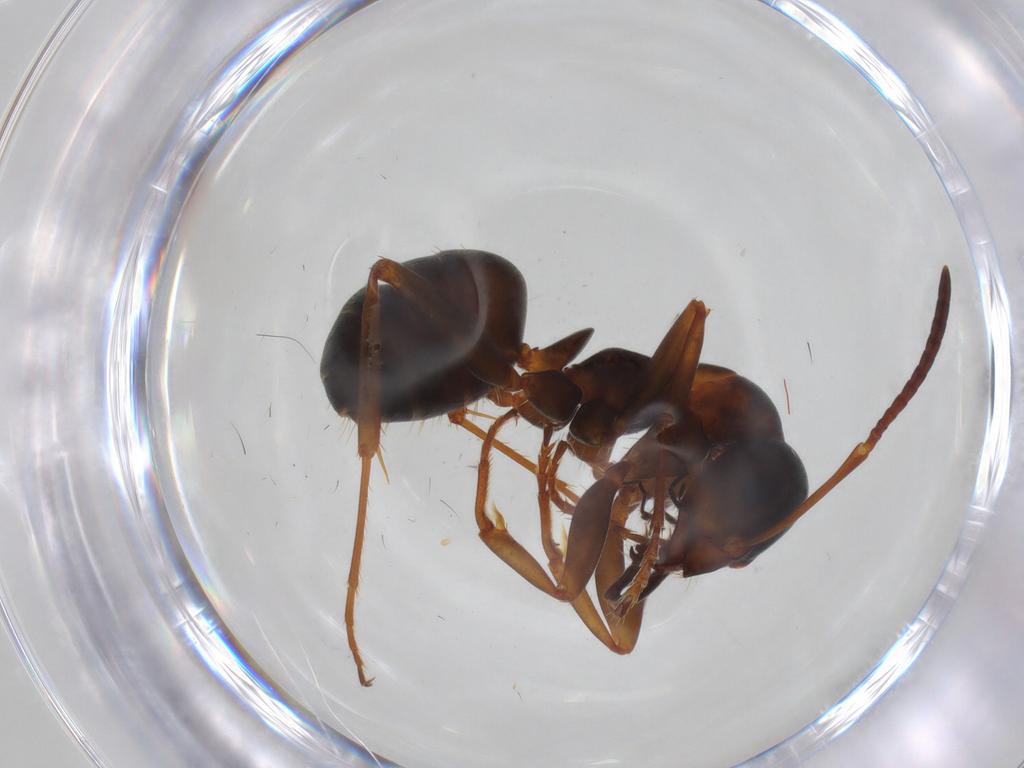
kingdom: Animalia
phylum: Arthropoda
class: Insecta
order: Hymenoptera
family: Formicidae
